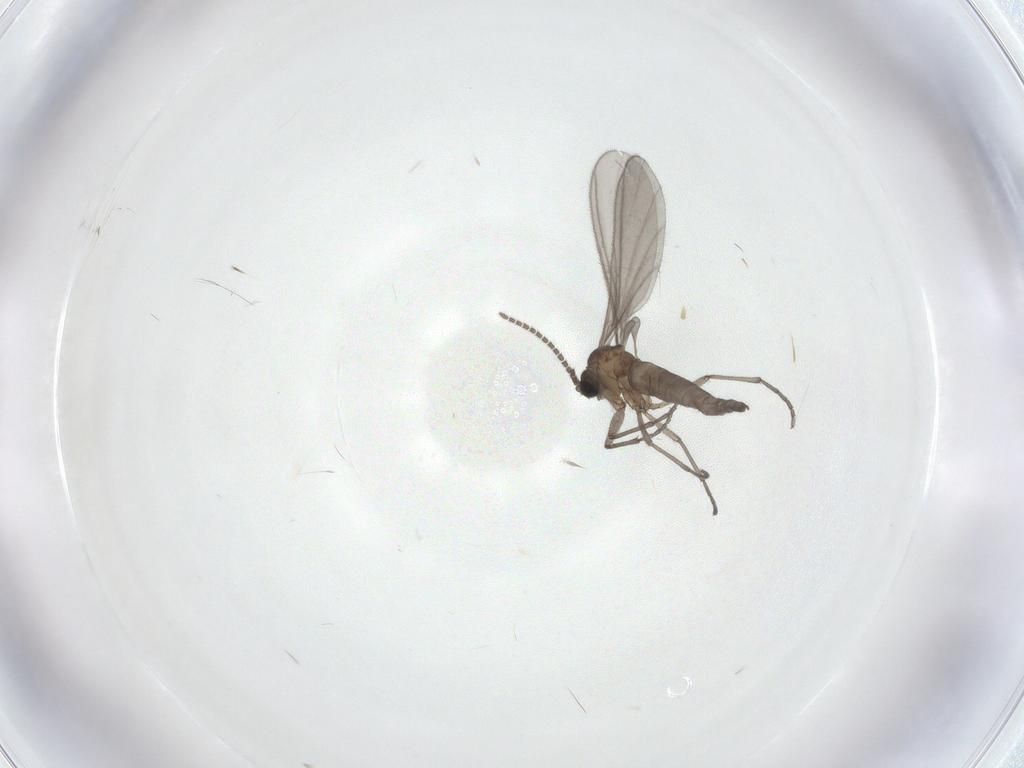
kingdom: Animalia
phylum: Arthropoda
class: Insecta
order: Diptera
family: Sciaridae
